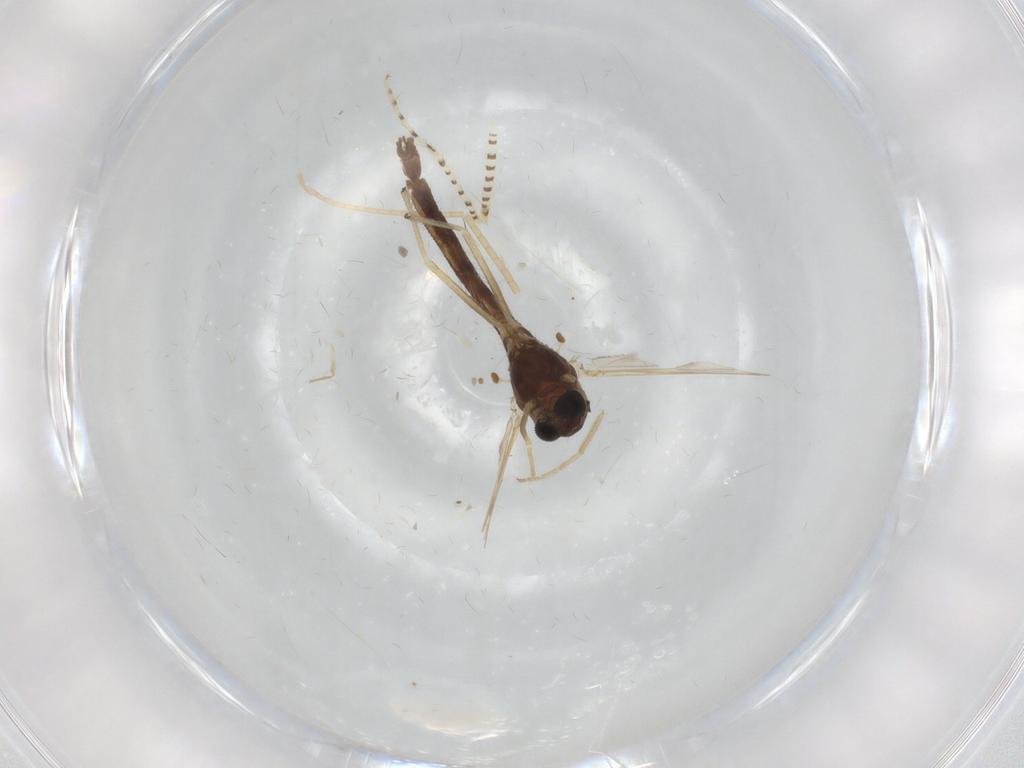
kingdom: Animalia
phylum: Arthropoda
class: Insecta
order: Diptera
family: Chironomidae
